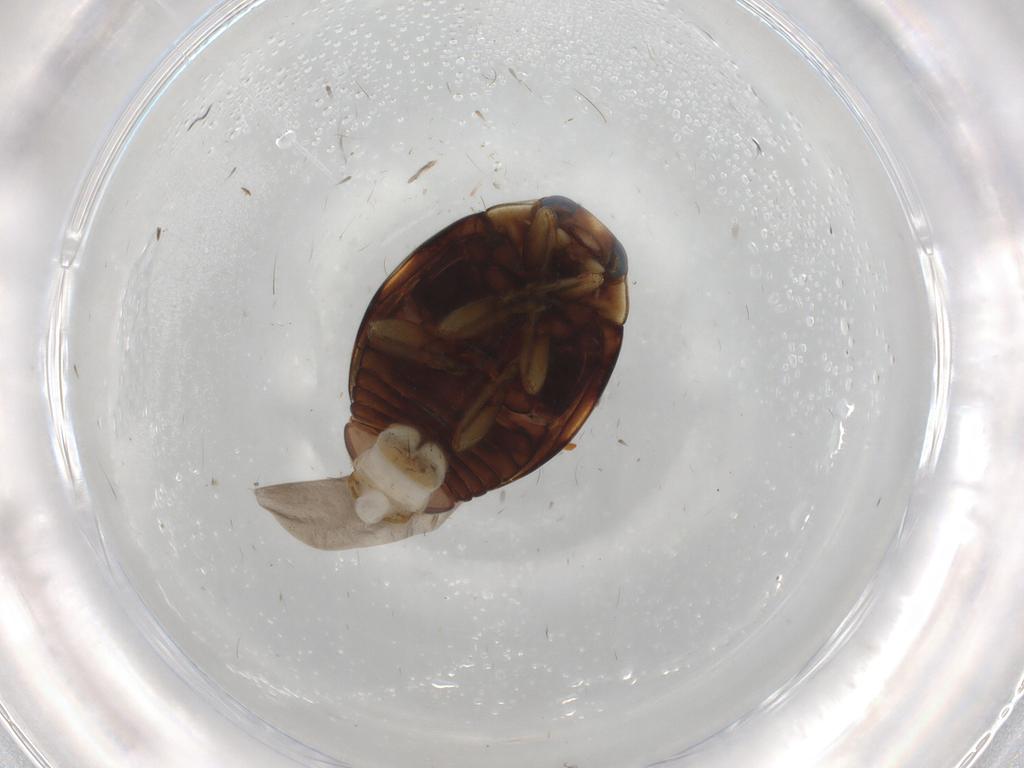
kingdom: Animalia
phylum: Arthropoda
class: Insecta
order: Coleoptera
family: Coccinellidae
